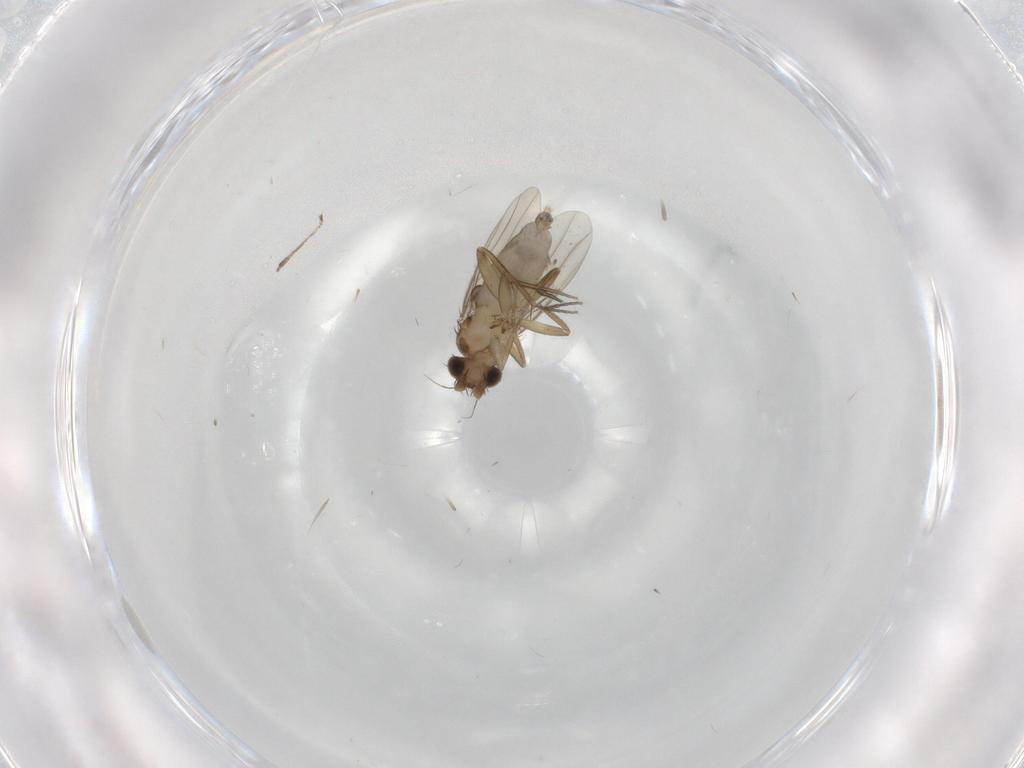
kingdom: Animalia
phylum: Arthropoda
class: Insecta
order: Diptera
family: Phoridae
